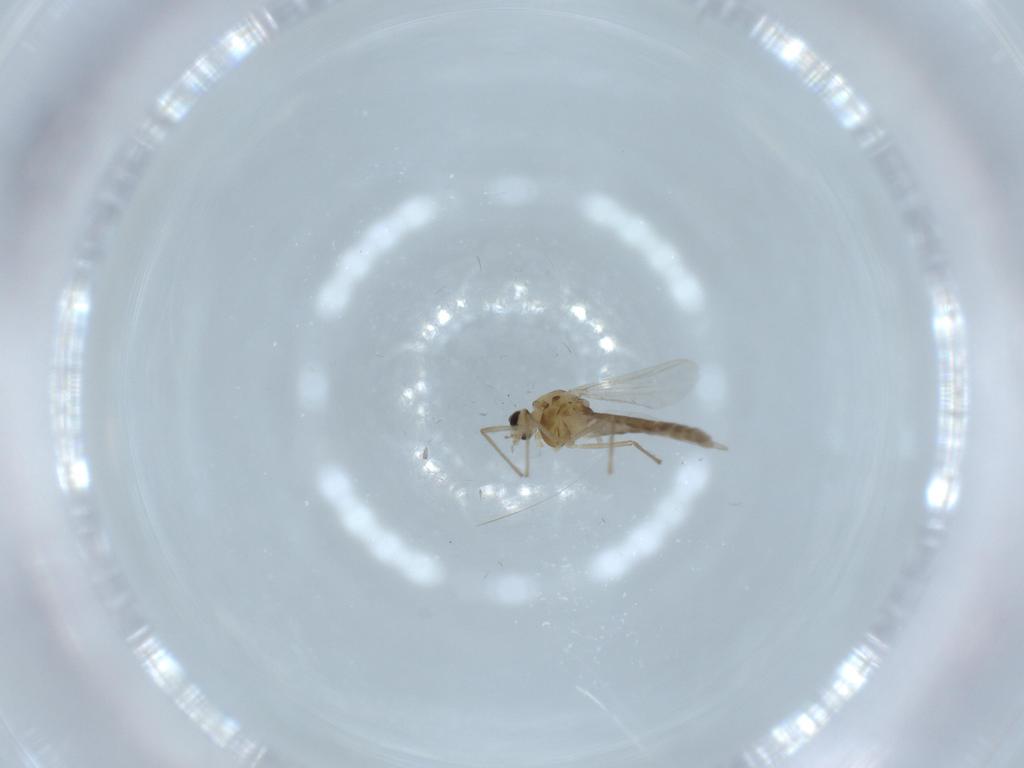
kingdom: Animalia
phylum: Arthropoda
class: Insecta
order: Diptera
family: Chironomidae
